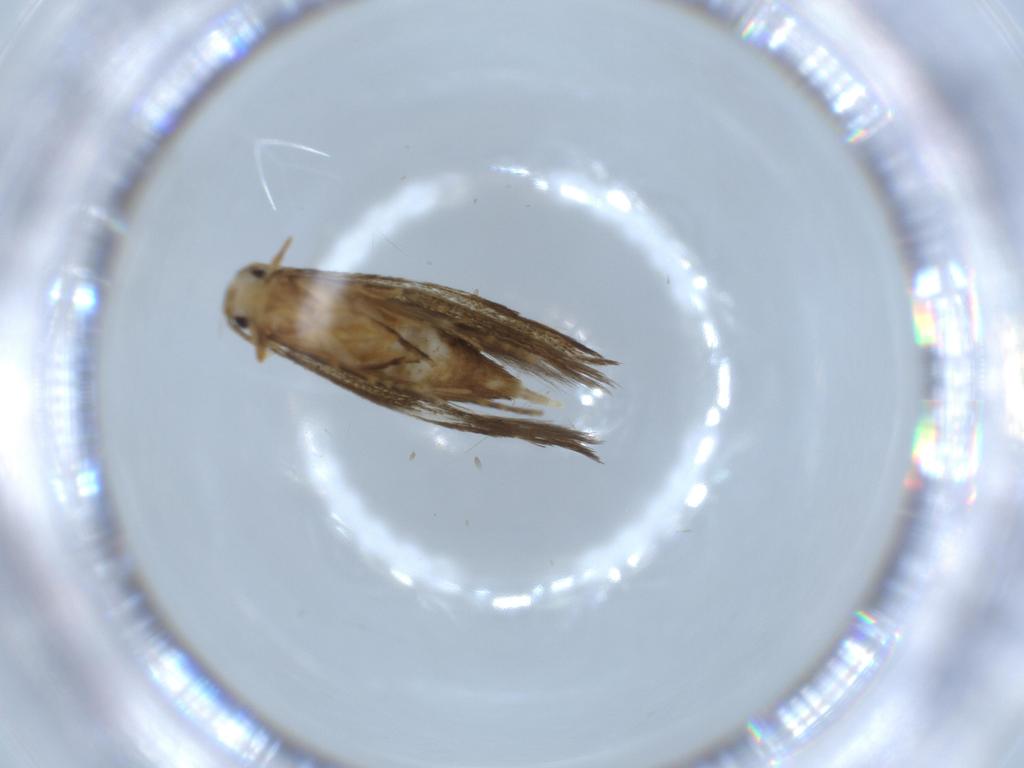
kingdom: Animalia
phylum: Arthropoda
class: Insecta
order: Lepidoptera
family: Tineidae
